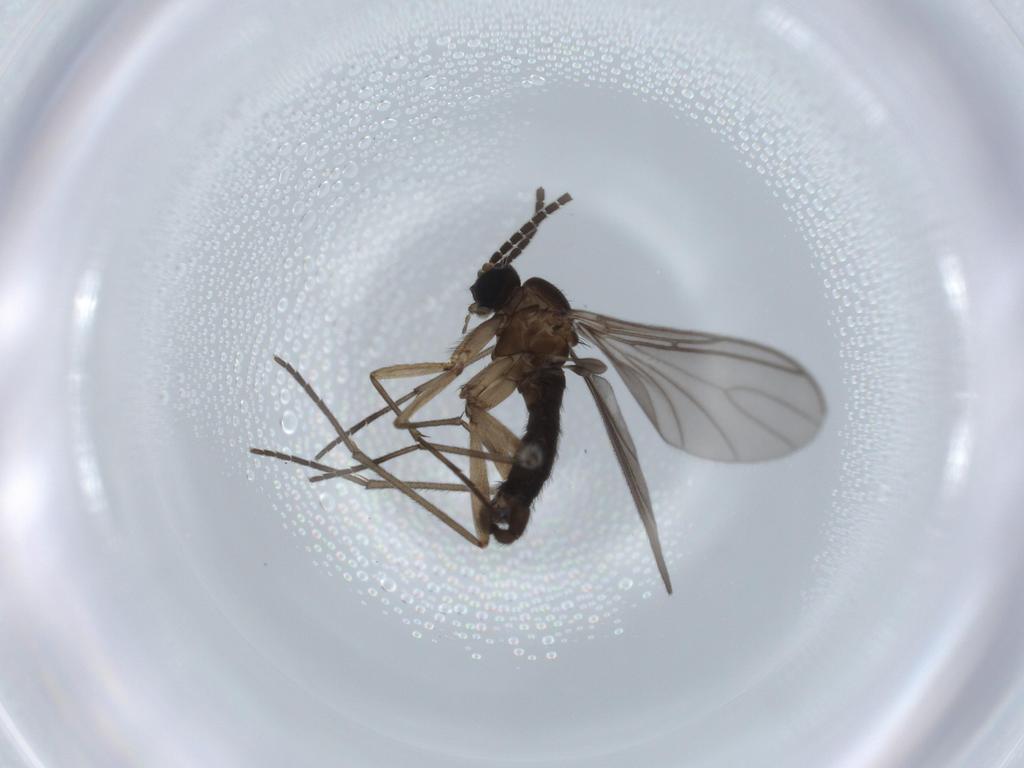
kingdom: Animalia
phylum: Arthropoda
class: Insecta
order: Diptera
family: Sciaridae
